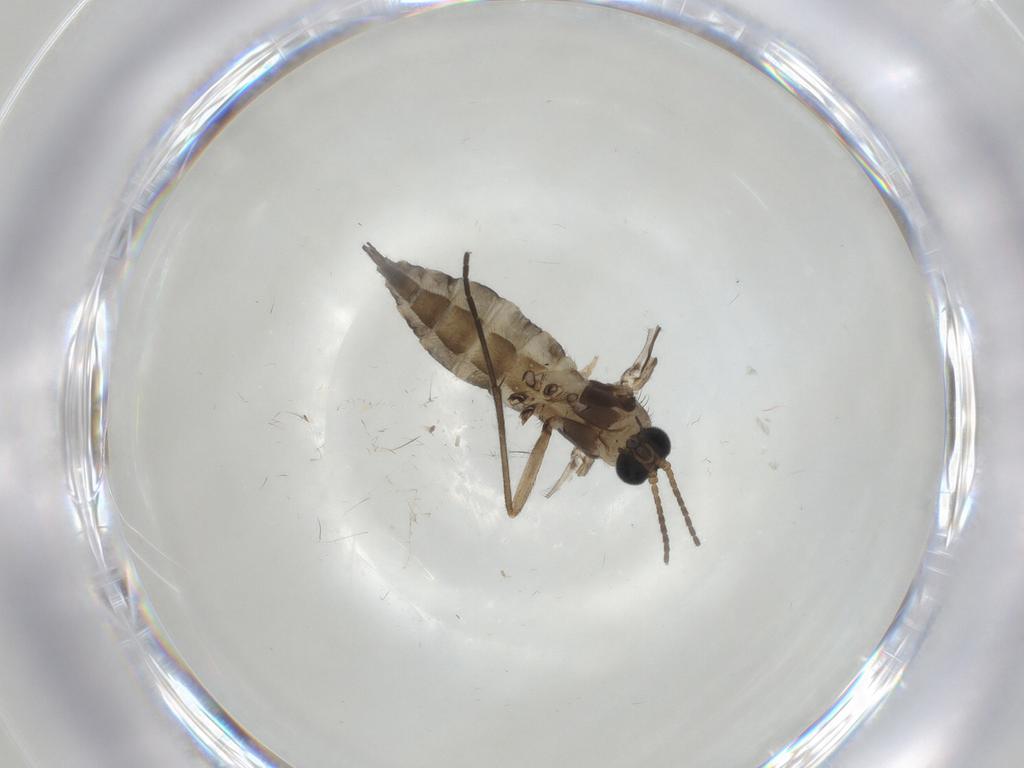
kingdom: Animalia
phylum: Arthropoda
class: Insecta
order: Diptera
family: Sciaridae
